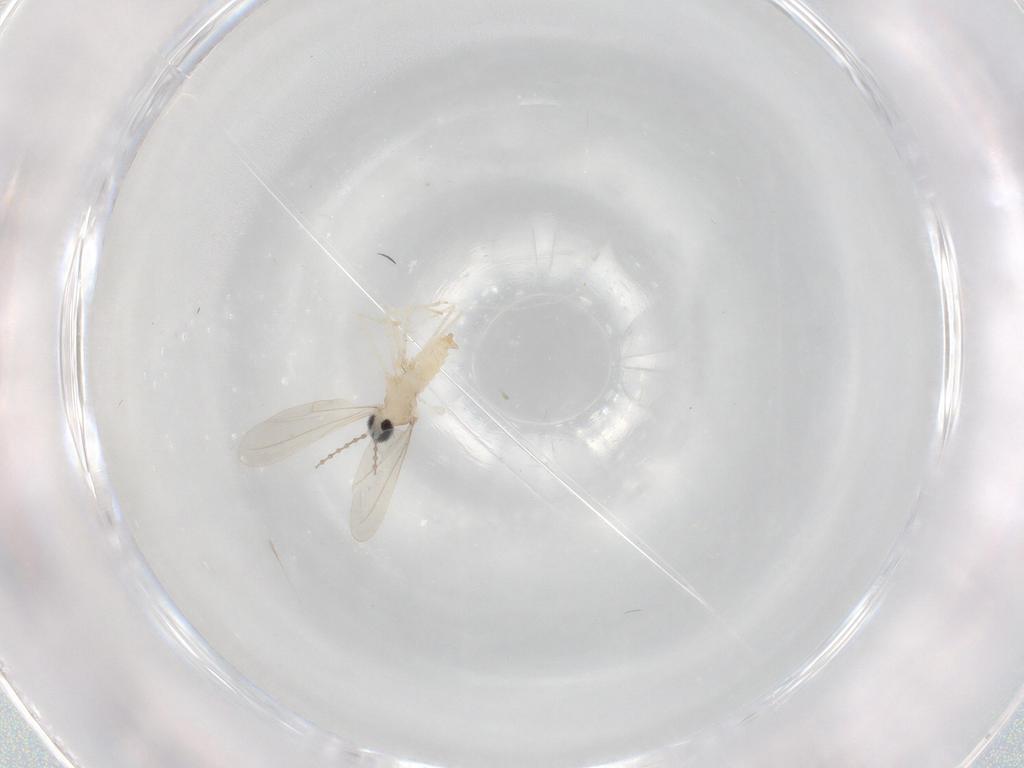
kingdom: Animalia
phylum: Arthropoda
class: Insecta
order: Diptera
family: Cecidomyiidae
